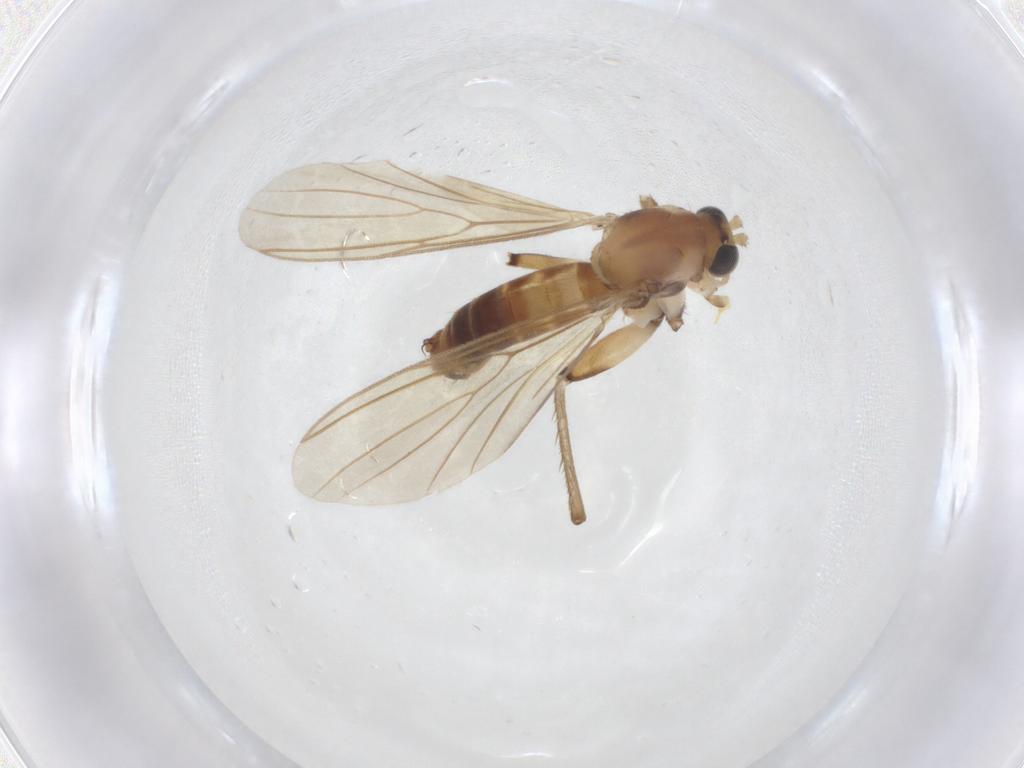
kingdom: Animalia
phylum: Arthropoda
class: Insecta
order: Diptera
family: Mycetophilidae
